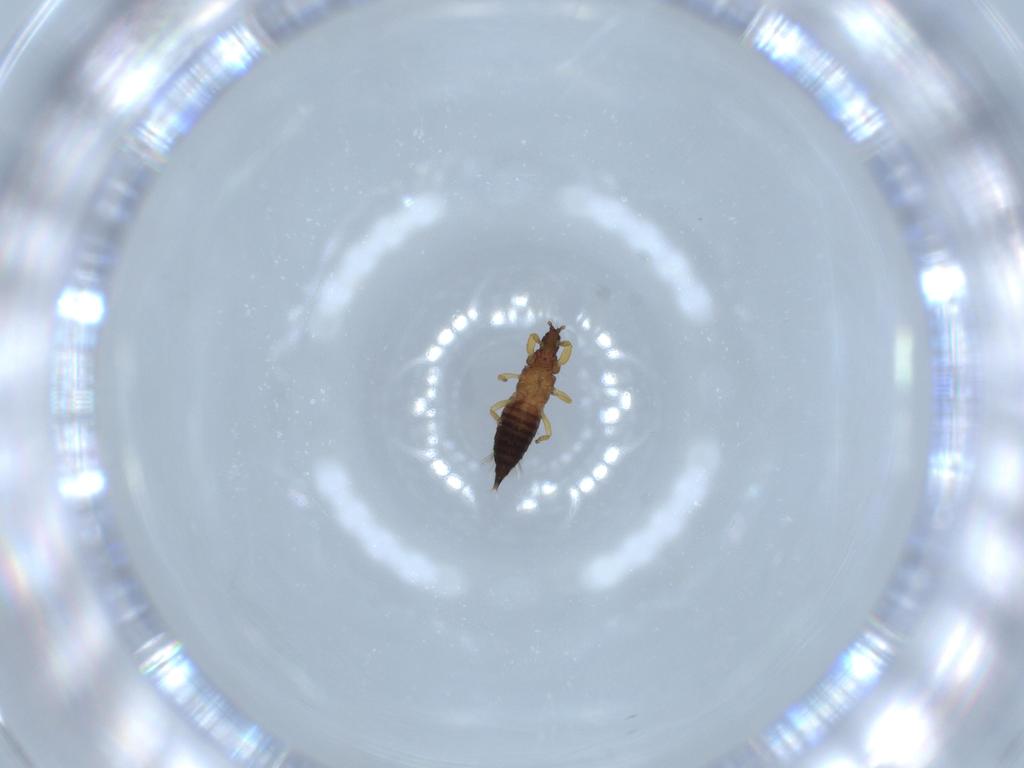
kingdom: Animalia
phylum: Arthropoda
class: Insecta
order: Thysanoptera
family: Phlaeothripidae
